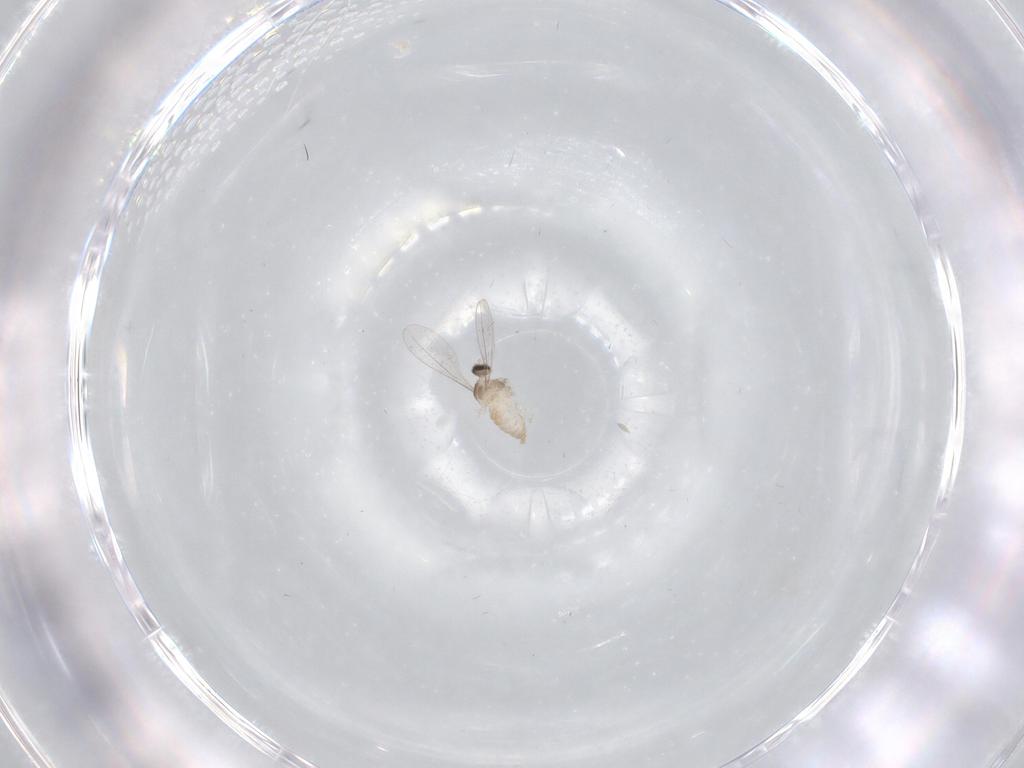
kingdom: Animalia
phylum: Arthropoda
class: Insecta
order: Diptera
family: Cecidomyiidae
